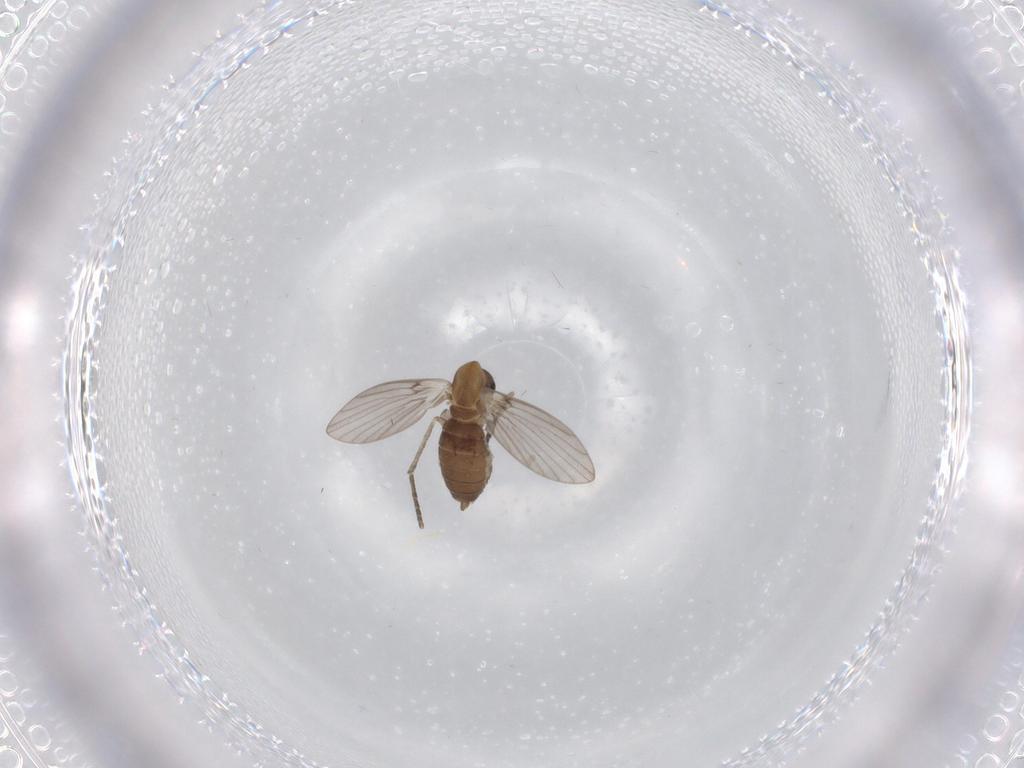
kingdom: Animalia
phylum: Arthropoda
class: Insecta
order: Diptera
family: Psychodidae
